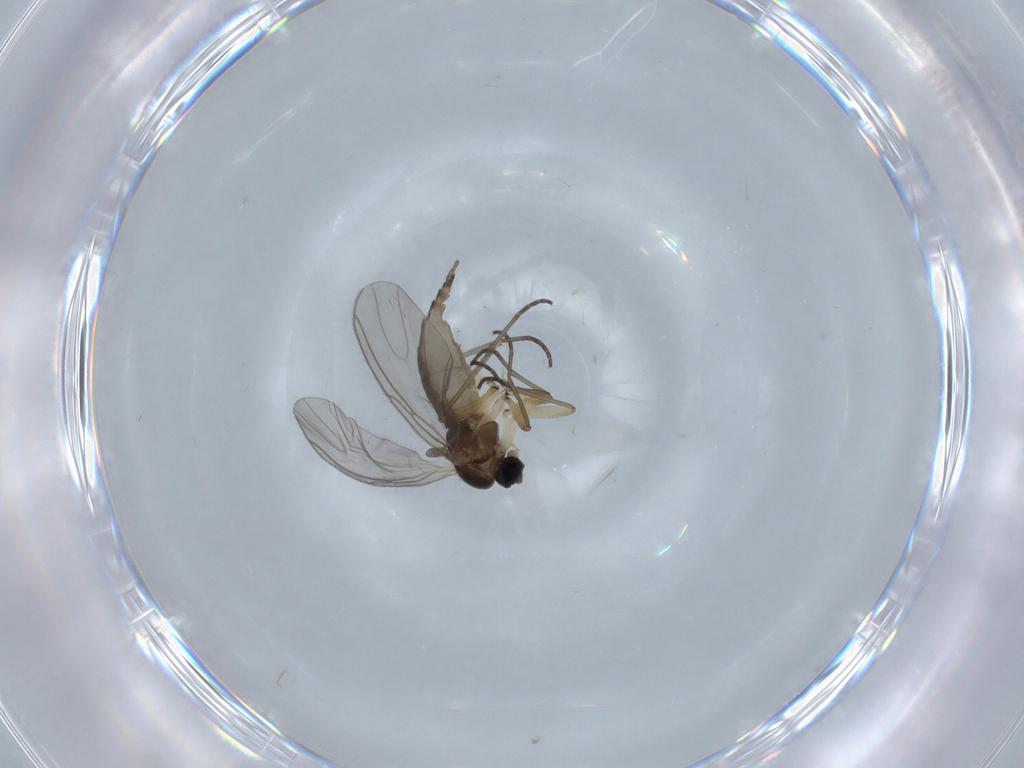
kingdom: Animalia
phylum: Arthropoda
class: Insecta
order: Diptera
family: Sciaridae
